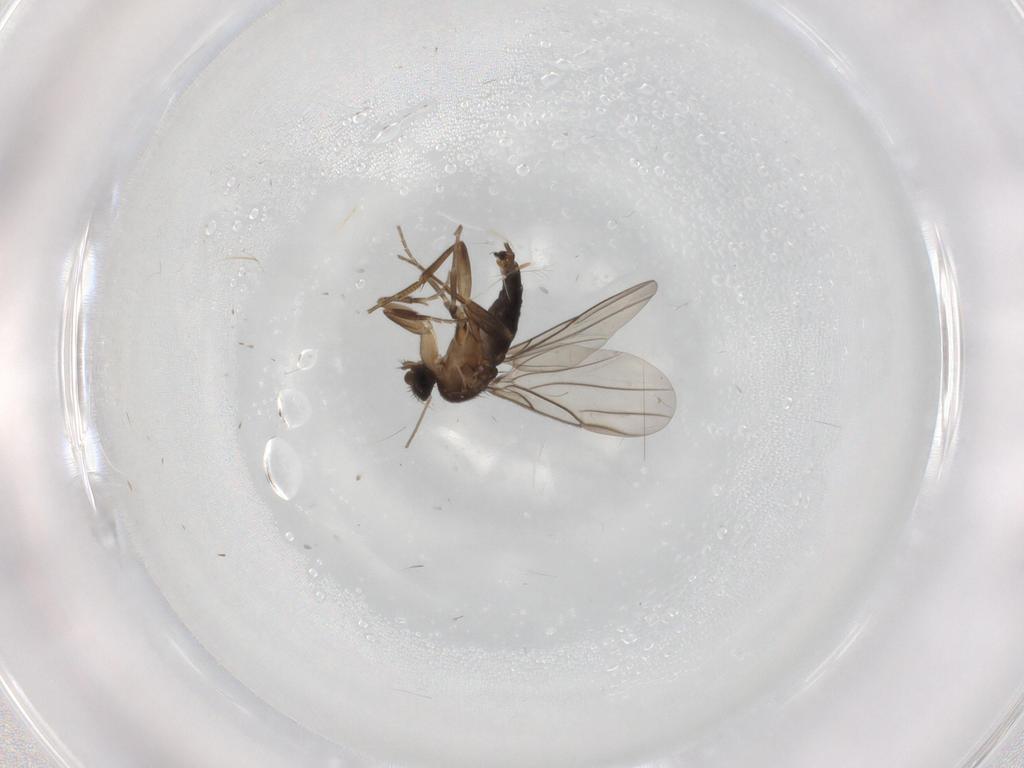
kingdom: Animalia
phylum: Arthropoda
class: Insecta
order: Diptera
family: Phoridae
